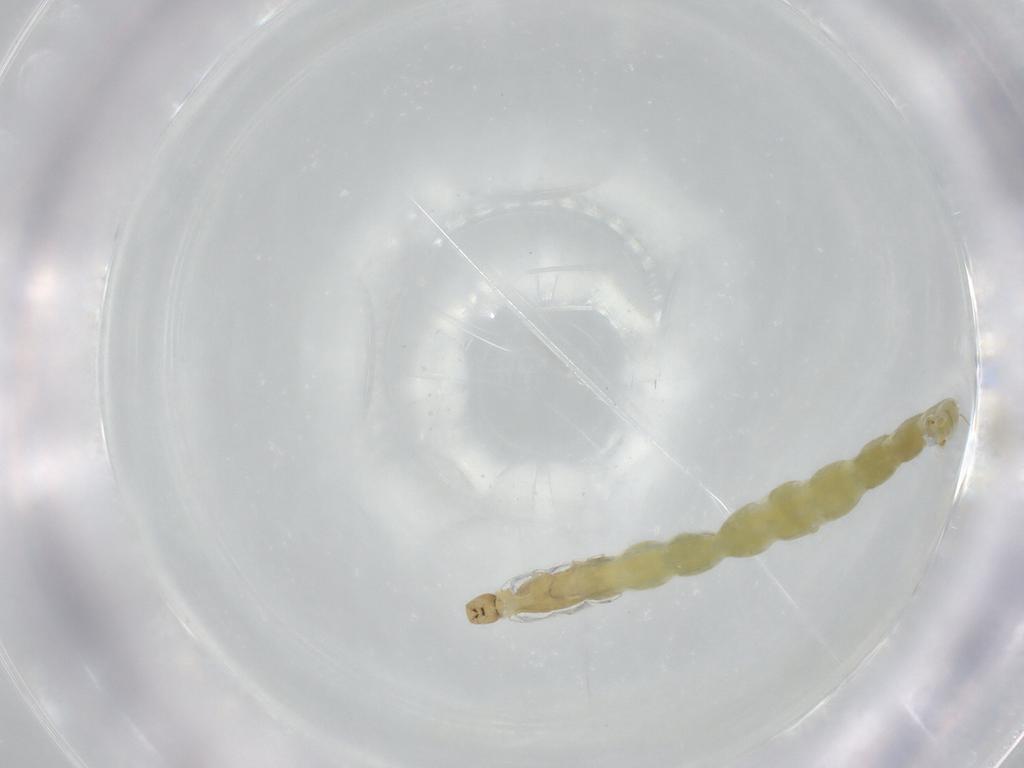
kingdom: Animalia
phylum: Arthropoda
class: Insecta
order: Diptera
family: Chironomidae
